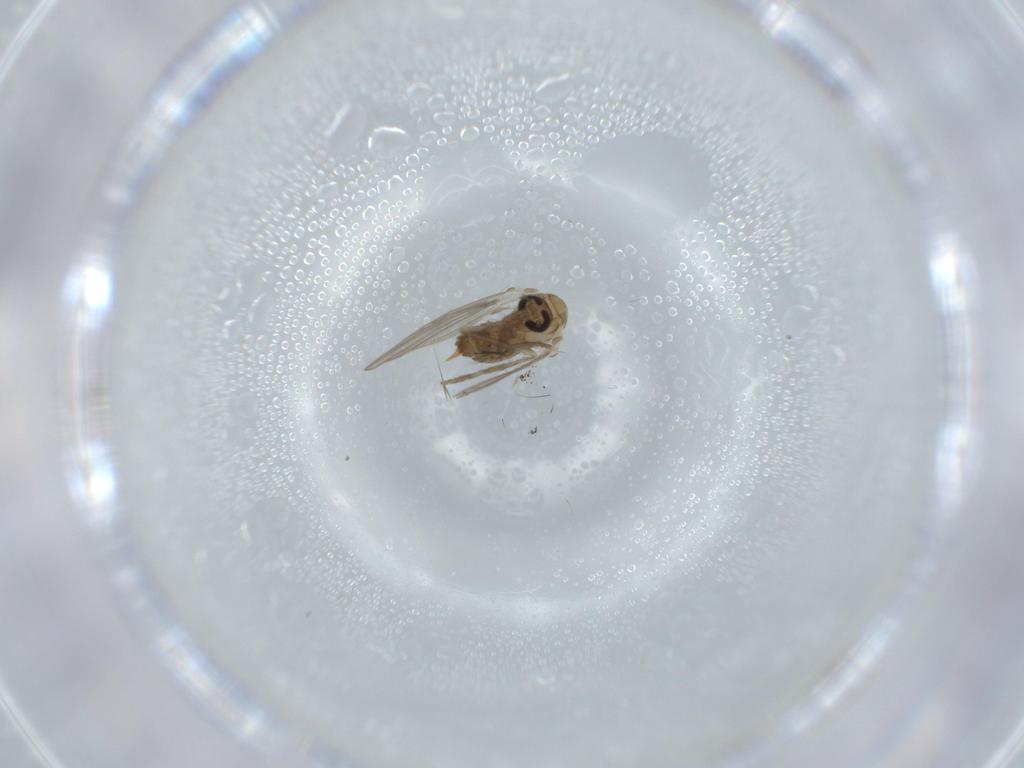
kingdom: Animalia
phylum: Arthropoda
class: Insecta
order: Diptera
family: Phoridae
